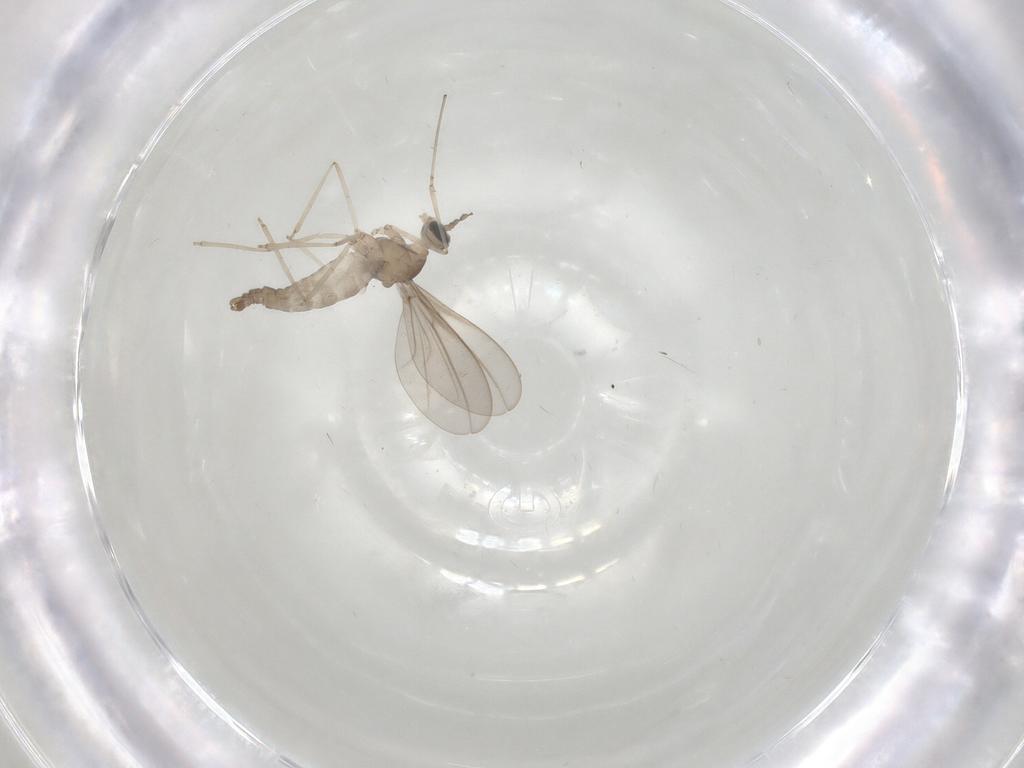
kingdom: Animalia
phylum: Arthropoda
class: Insecta
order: Diptera
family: Cecidomyiidae
